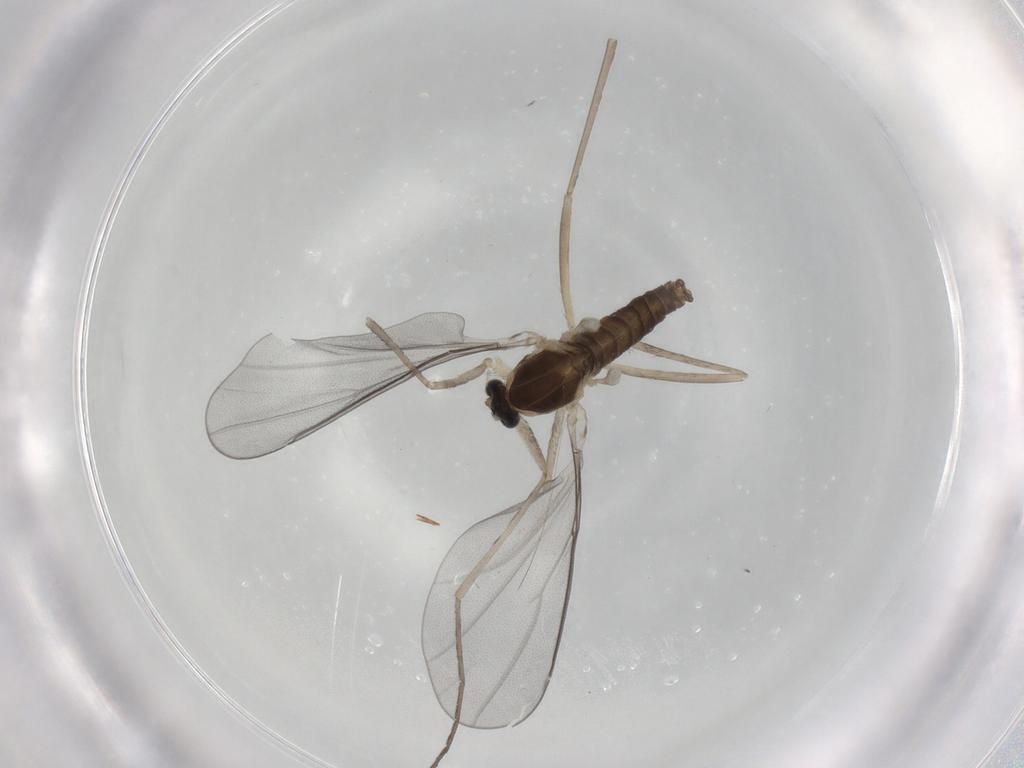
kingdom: Animalia
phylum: Arthropoda
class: Insecta
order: Diptera
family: Cecidomyiidae
